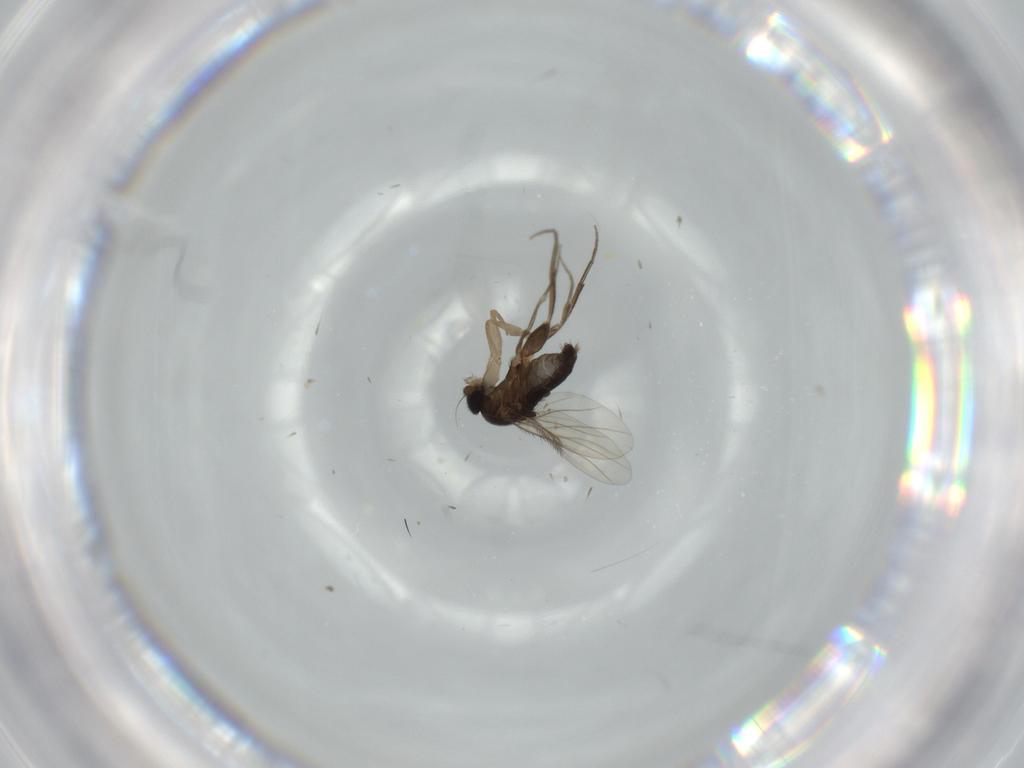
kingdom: Animalia
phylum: Arthropoda
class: Insecta
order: Diptera
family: Phoridae
